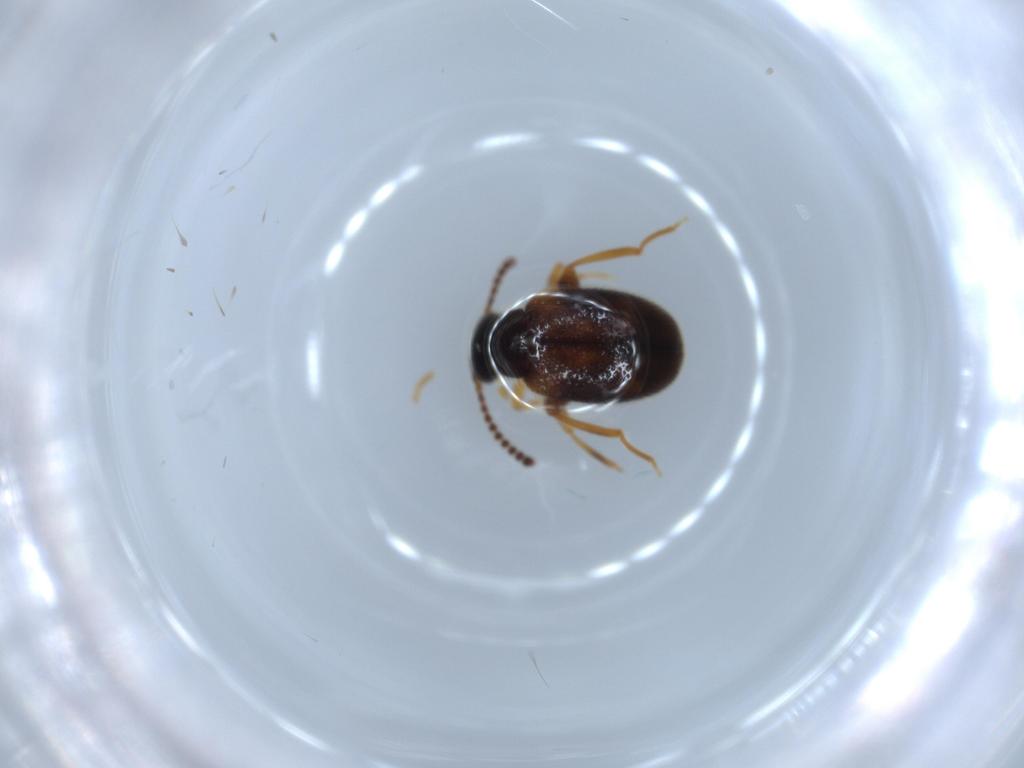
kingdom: Animalia
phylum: Arthropoda
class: Insecta
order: Coleoptera
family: Aderidae
